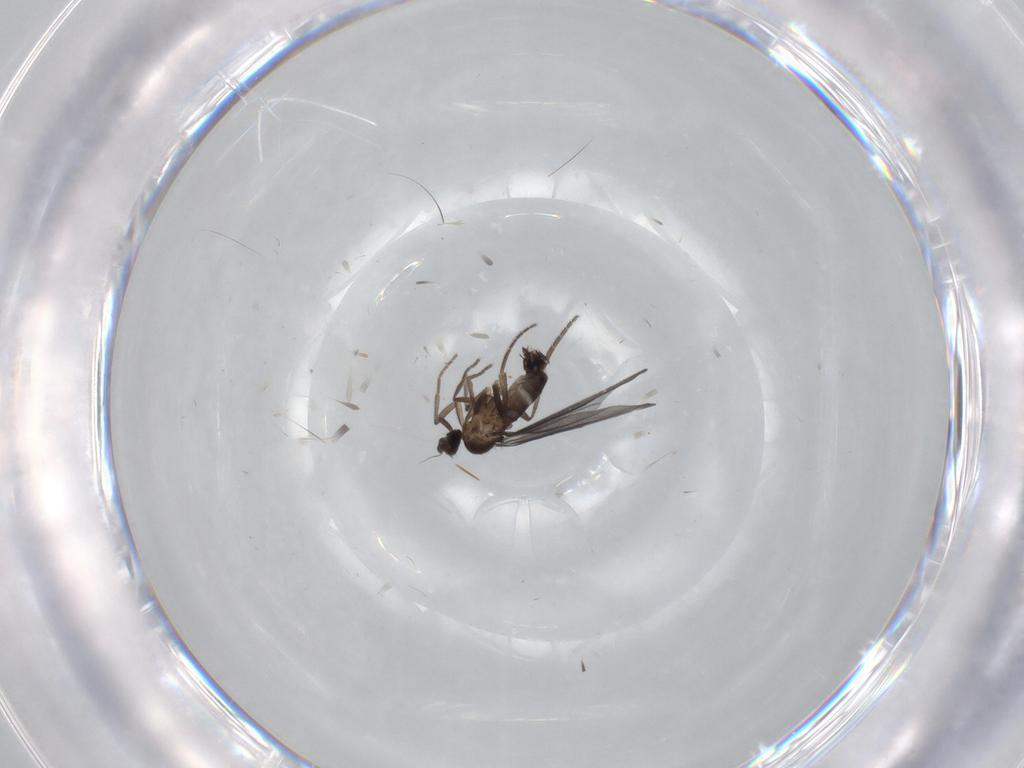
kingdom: Animalia
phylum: Arthropoda
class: Insecta
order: Diptera
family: Phoridae
